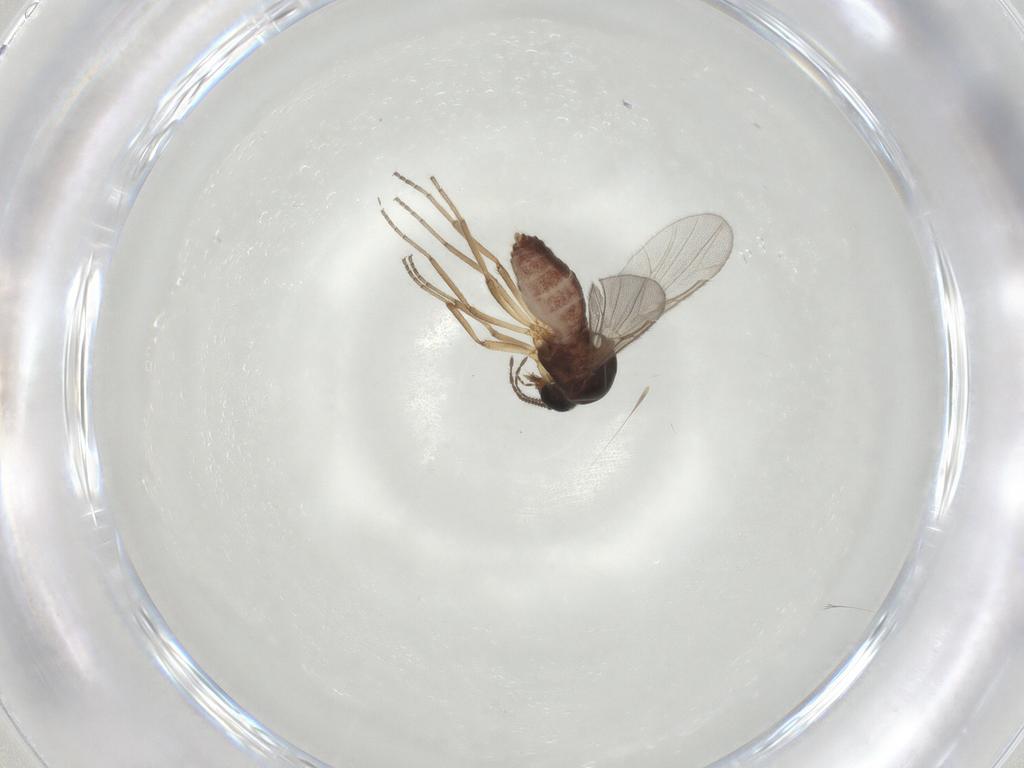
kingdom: Animalia
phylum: Arthropoda
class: Insecta
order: Diptera
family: Ceratopogonidae
